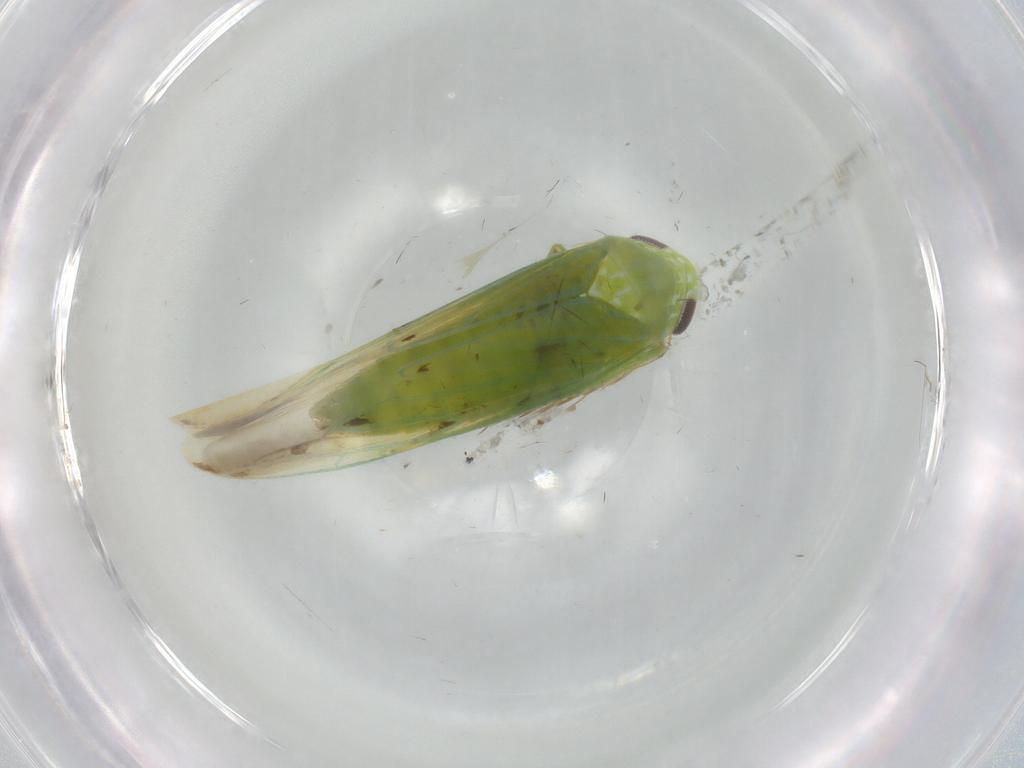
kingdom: Animalia
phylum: Arthropoda
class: Insecta
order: Hemiptera
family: Cicadellidae
